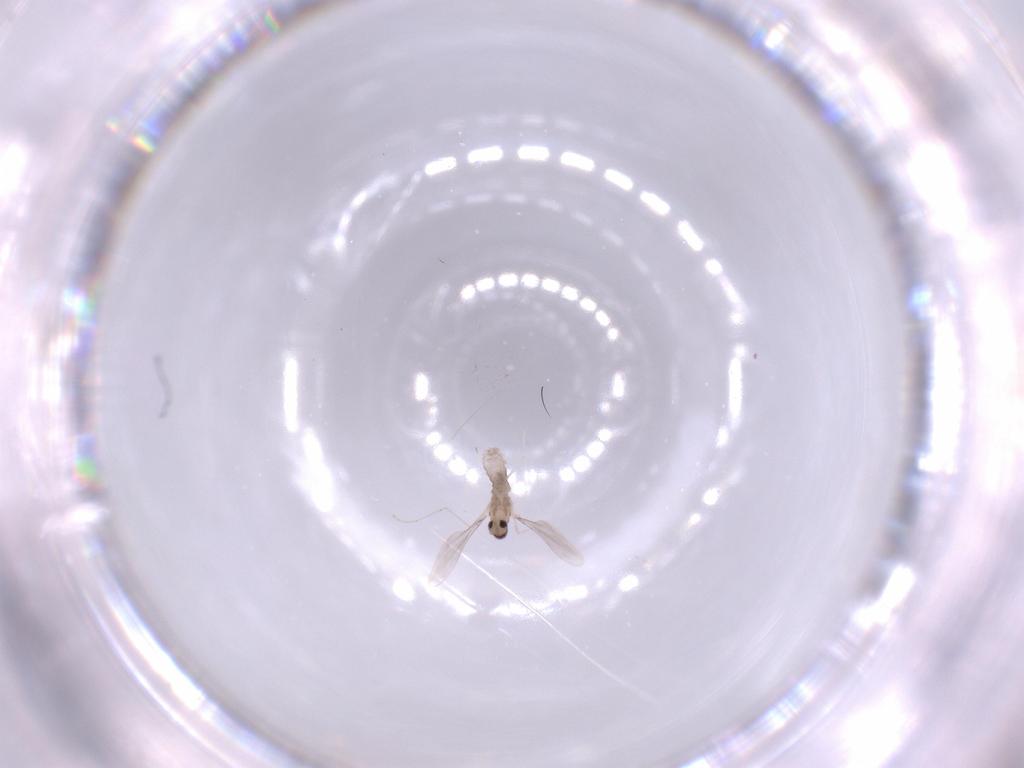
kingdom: Animalia
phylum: Arthropoda
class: Insecta
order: Diptera
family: Cecidomyiidae
